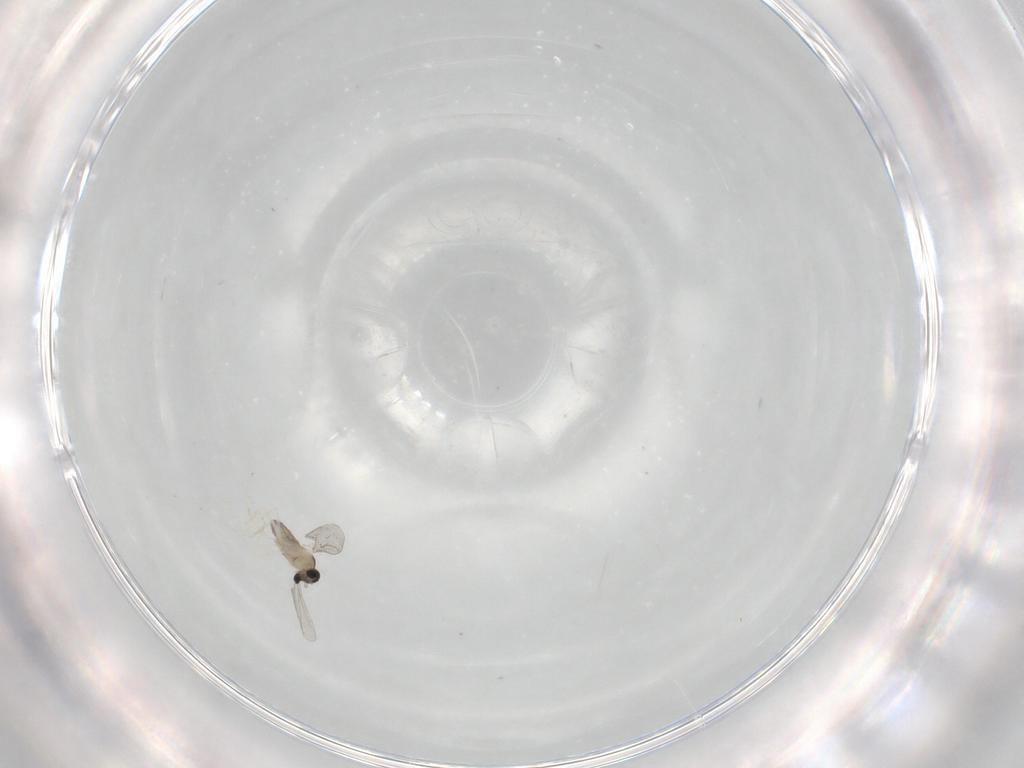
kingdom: Animalia
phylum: Arthropoda
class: Insecta
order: Diptera
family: Cecidomyiidae
